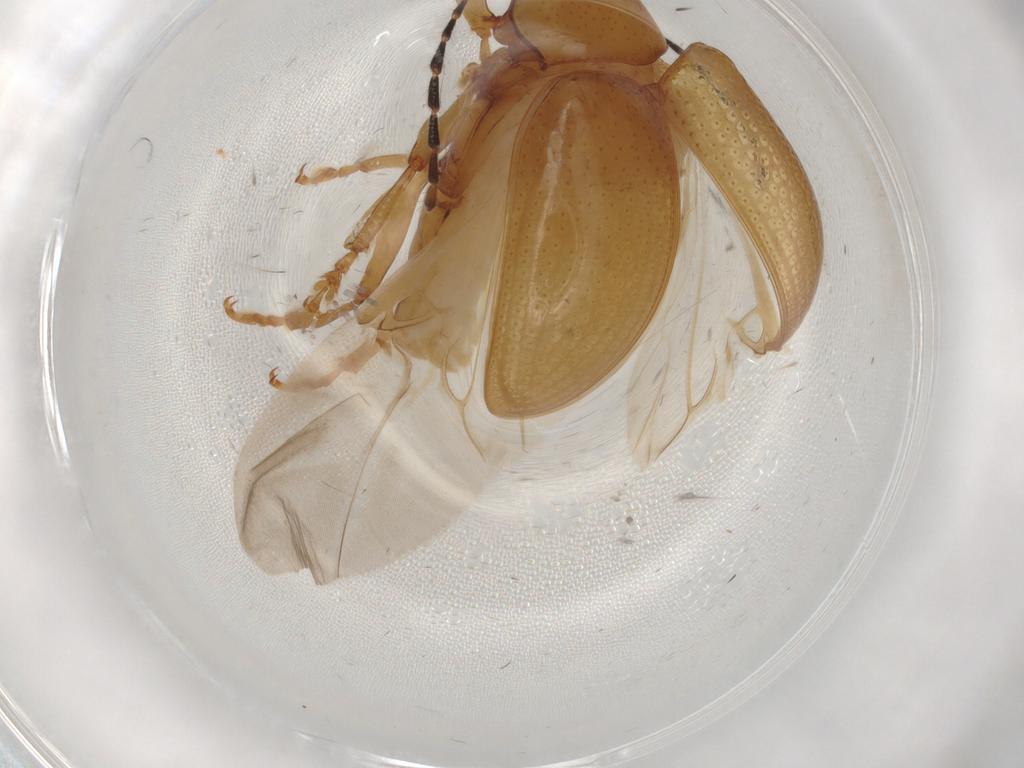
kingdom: Animalia
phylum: Arthropoda
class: Insecta
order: Coleoptera
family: Chrysomelidae
